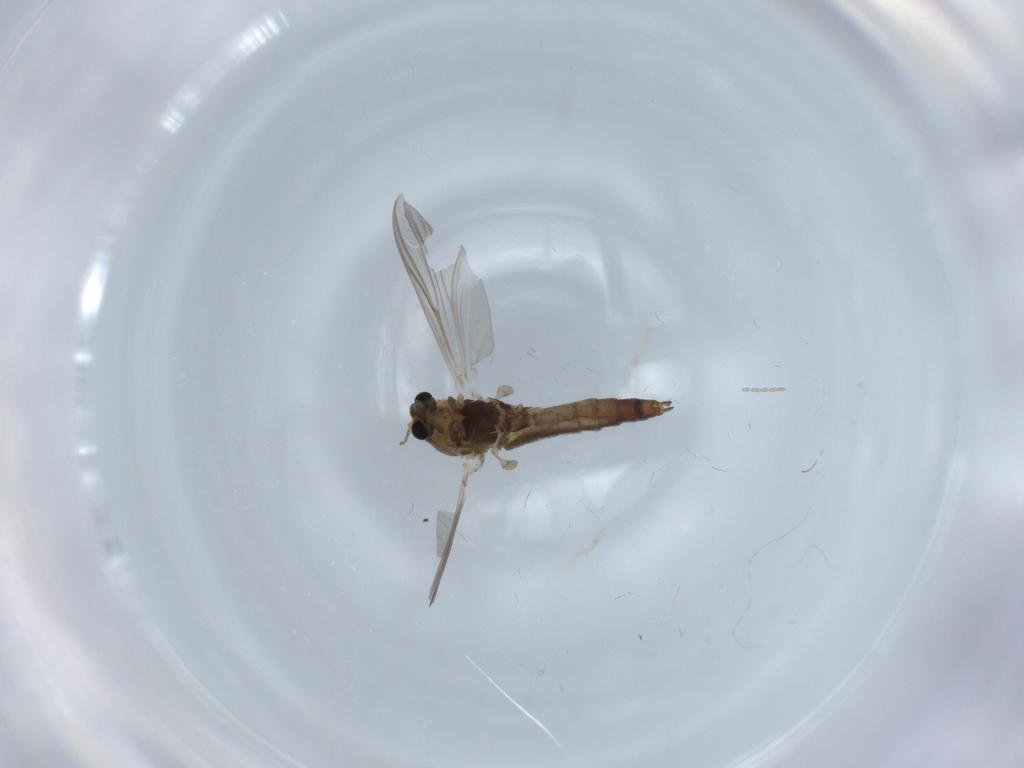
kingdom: Animalia
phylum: Arthropoda
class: Insecta
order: Diptera
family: Chironomidae
